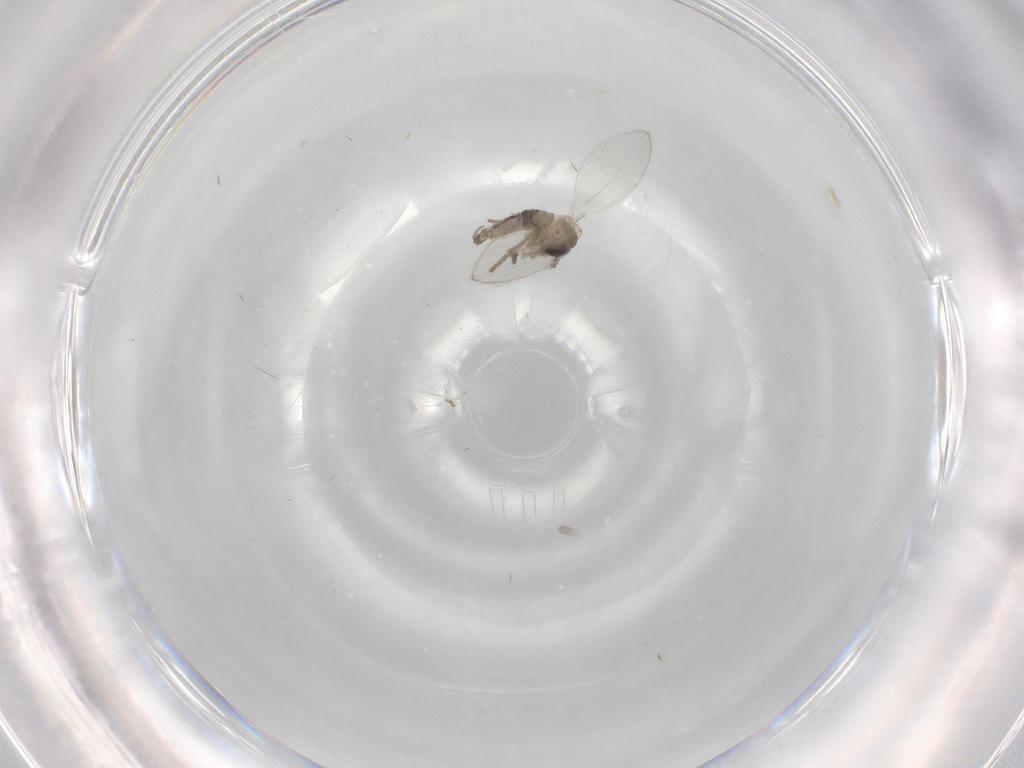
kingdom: Animalia
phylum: Arthropoda
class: Insecta
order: Diptera
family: Psychodidae
